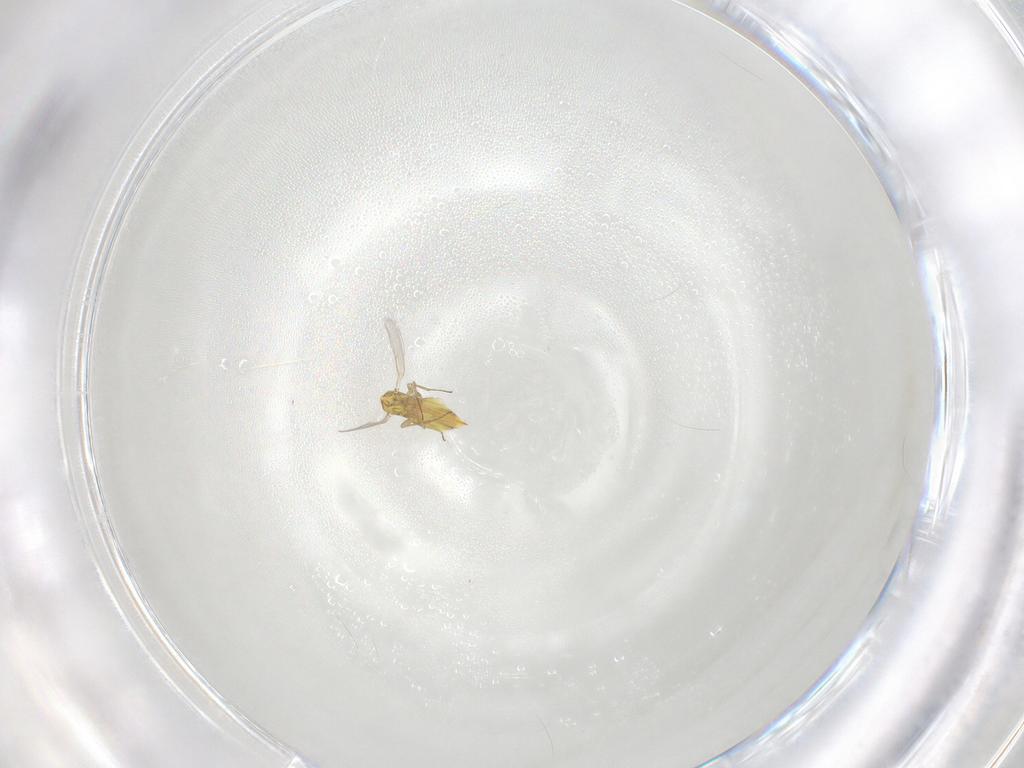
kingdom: Animalia
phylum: Arthropoda
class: Insecta
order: Hymenoptera
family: Aphelinidae
